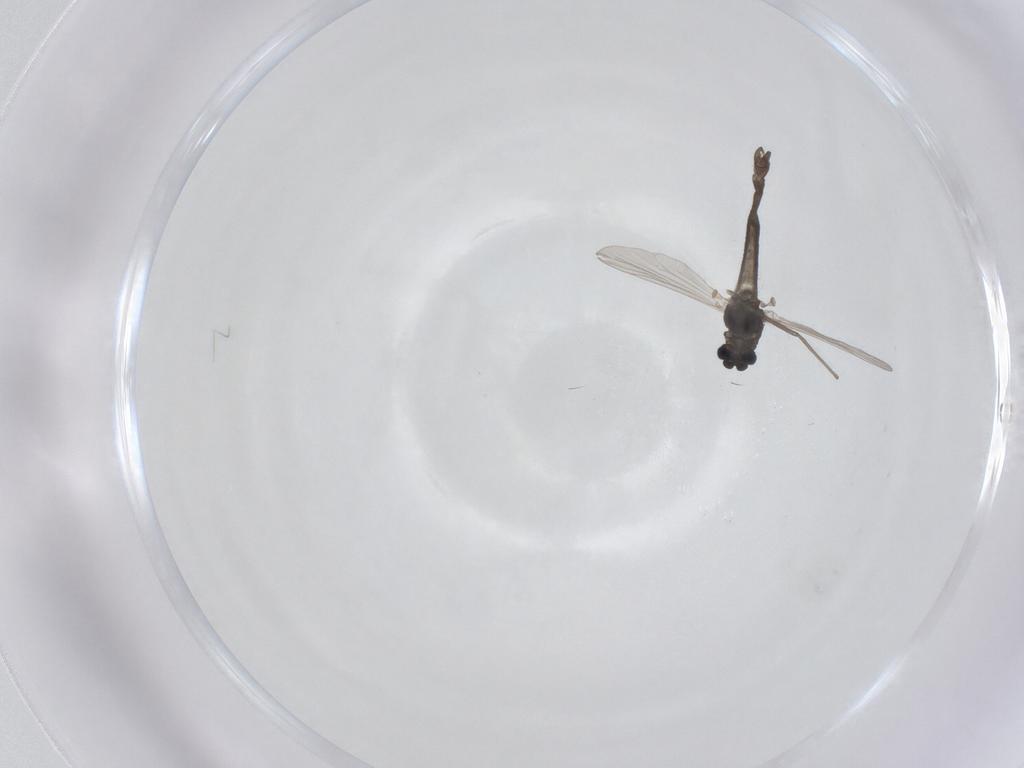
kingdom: Animalia
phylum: Arthropoda
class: Insecta
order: Diptera
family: Chironomidae
